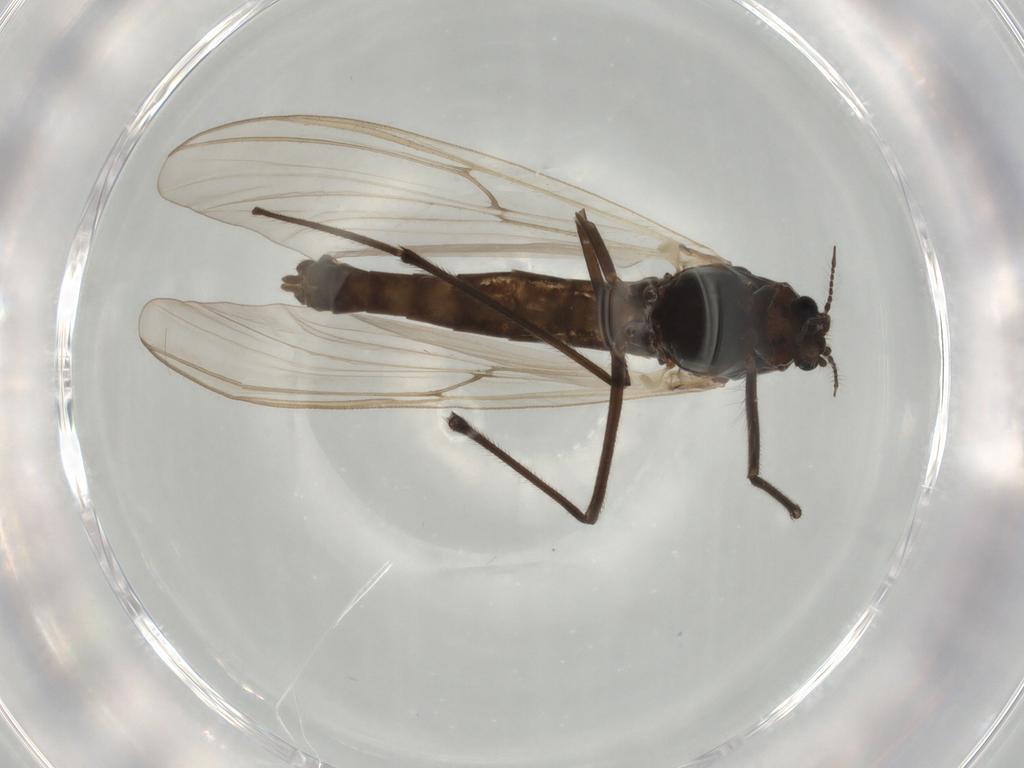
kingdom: Animalia
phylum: Arthropoda
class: Insecta
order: Diptera
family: Chironomidae
